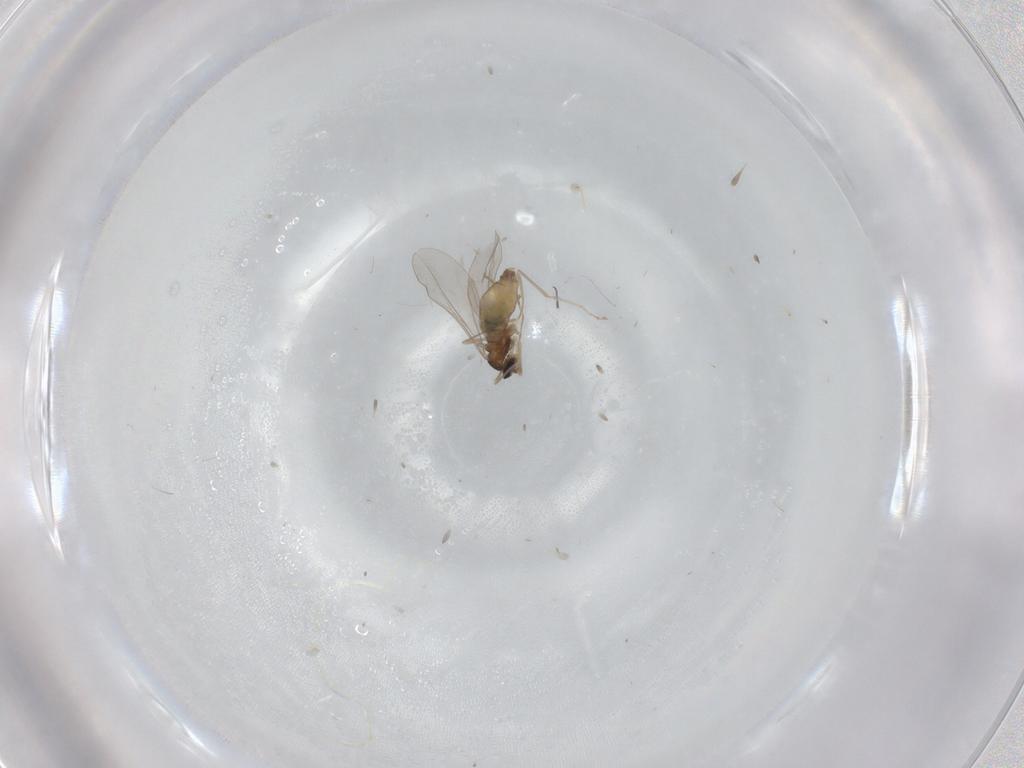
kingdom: Animalia
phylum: Arthropoda
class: Insecta
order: Diptera
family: Cecidomyiidae
